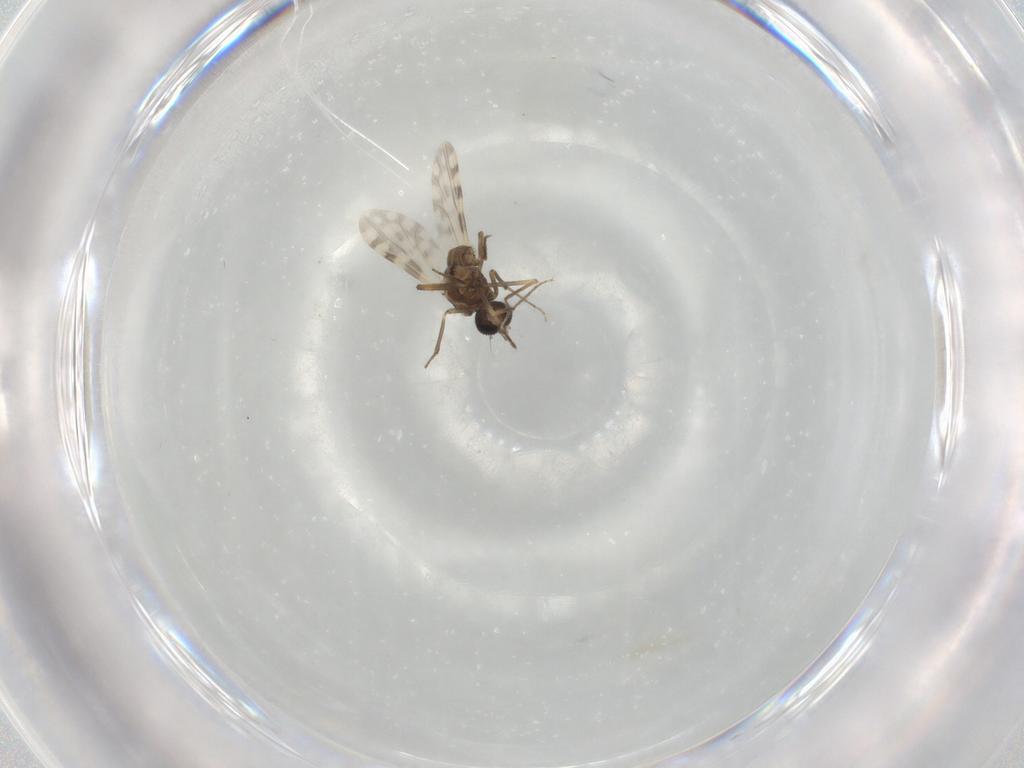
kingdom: Animalia
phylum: Arthropoda
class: Insecta
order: Diptera
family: Ceratopogonidae
